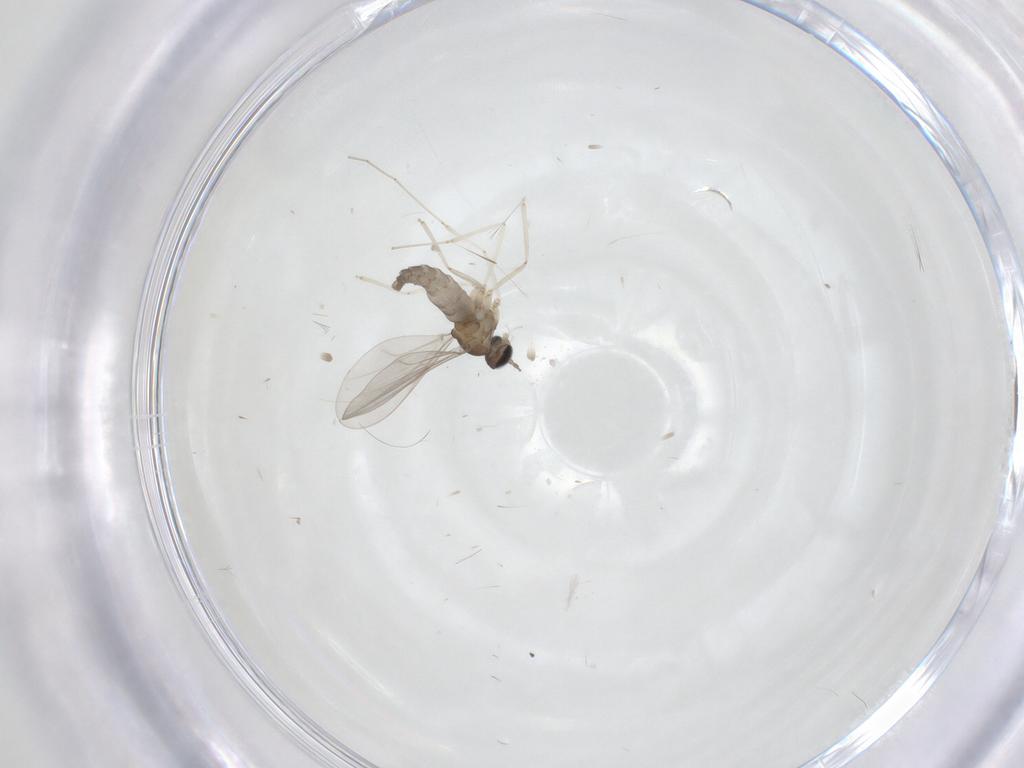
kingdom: Animalia
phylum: Arthropoda
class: Insecta
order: Diptera
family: Cecidomyiidae
